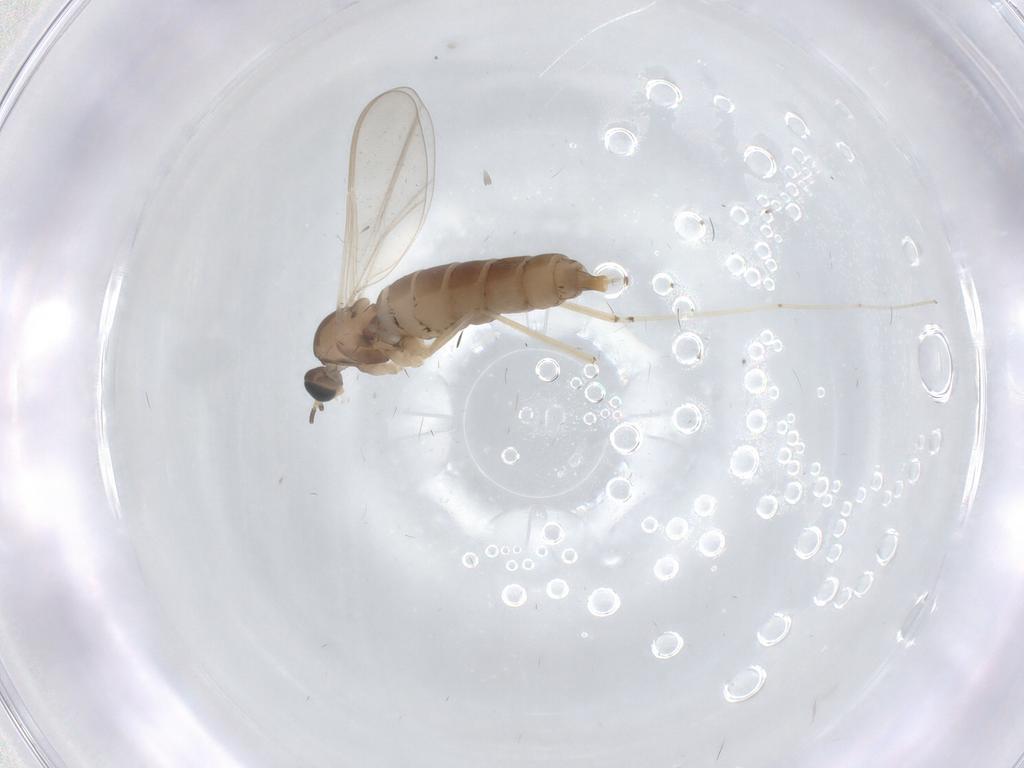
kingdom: Animalia
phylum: Arthropoda
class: Insecta
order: Diptera
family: Cecidomyiidae
